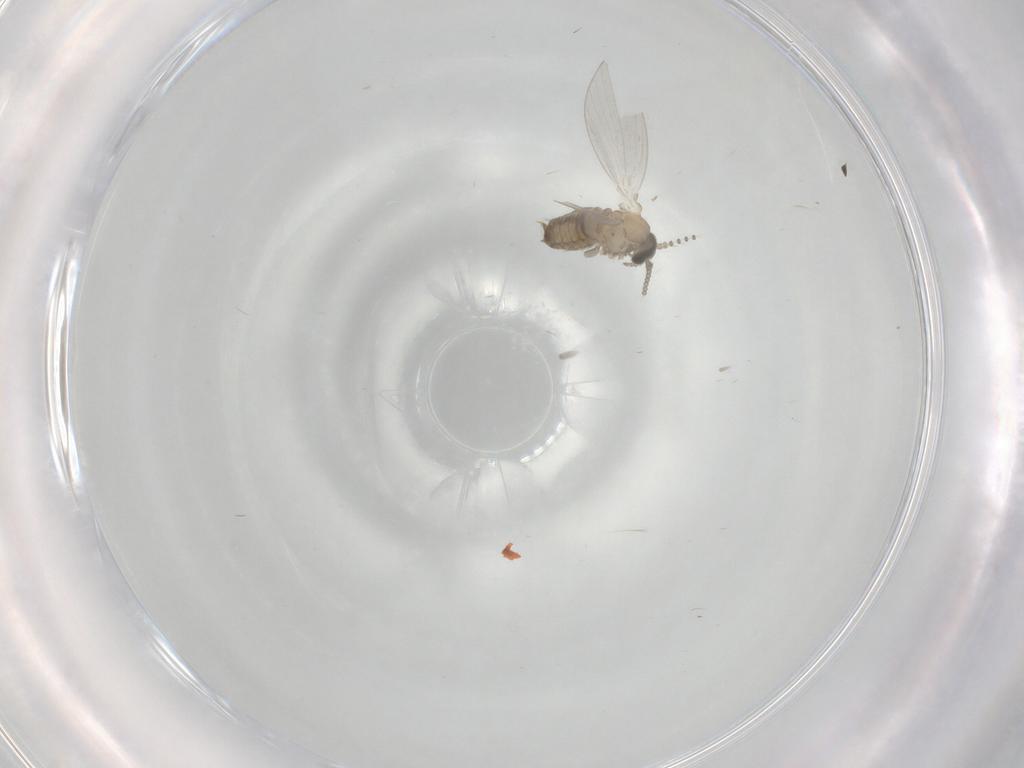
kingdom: Animalia
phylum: Arthropoda
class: Insecta
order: Diptera
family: Psychodidae
